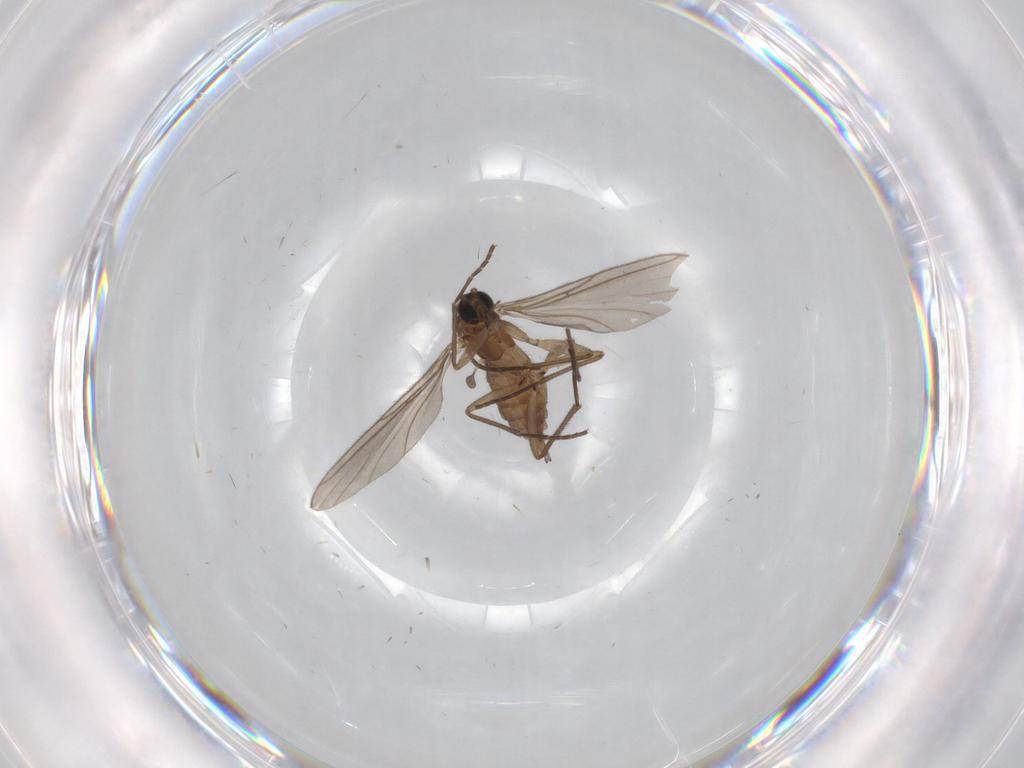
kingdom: Animalia
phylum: Arthropoda
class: Insecta
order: Diptera
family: Sciaridae
